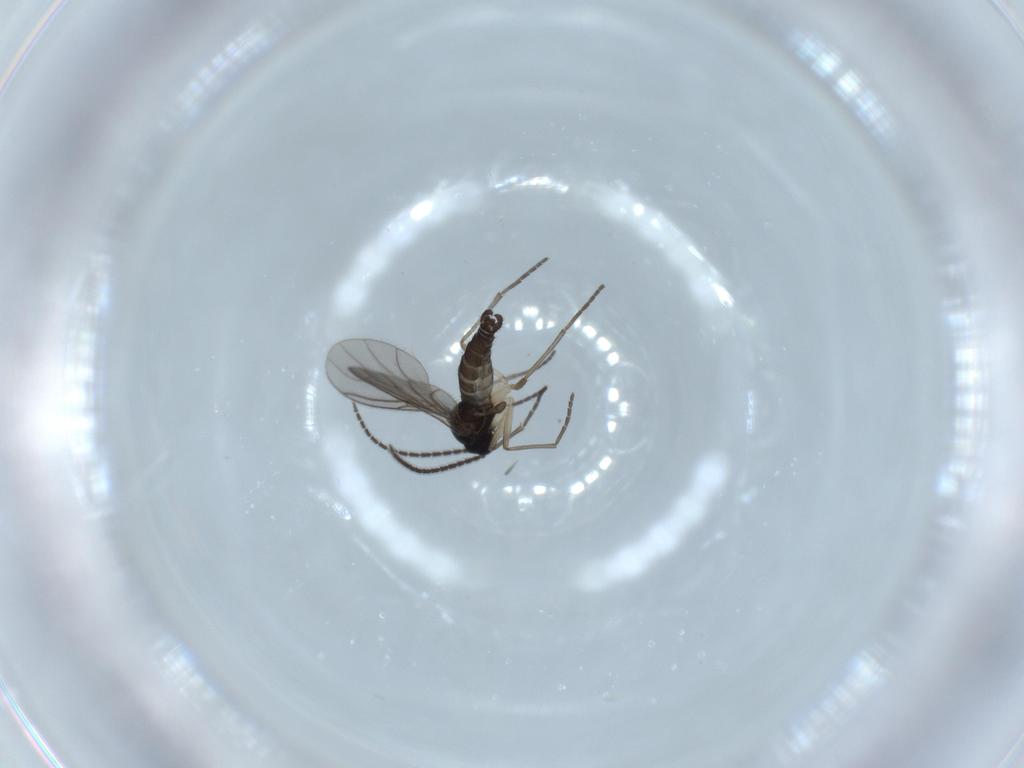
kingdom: Animalia
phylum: Arthropoda
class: Insecta
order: Diptera
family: Sciaridae
